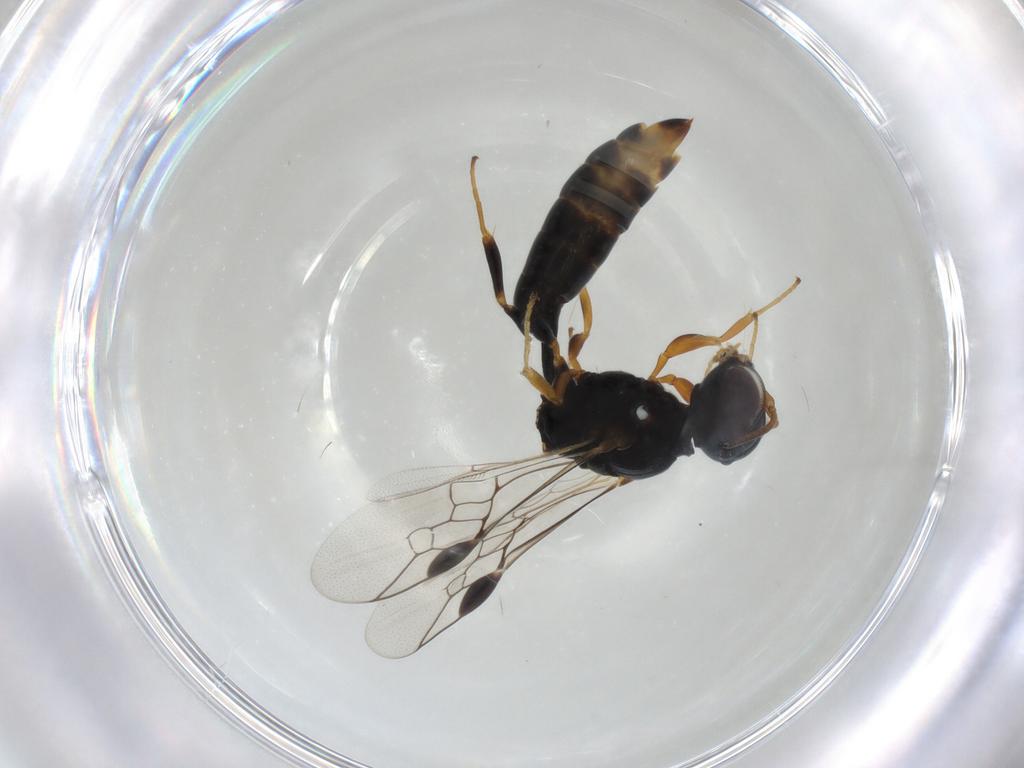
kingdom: Animalia
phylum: Arthropoda
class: Insecta
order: Hymenoptera
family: Pemphredonidae
